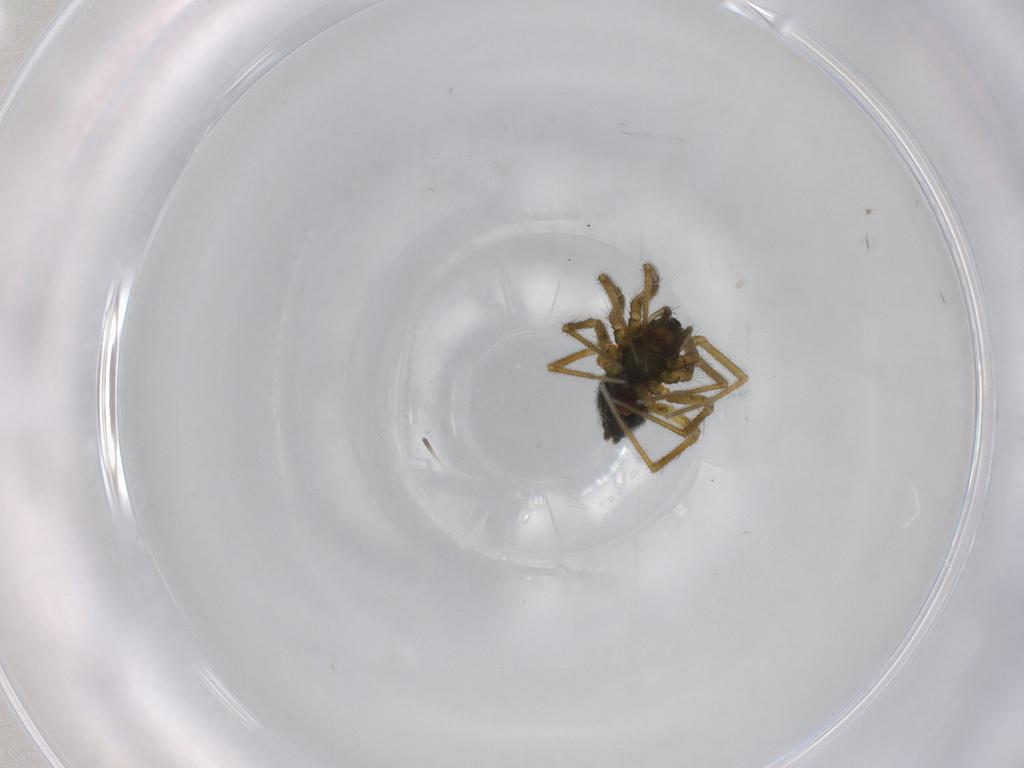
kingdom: Animalia
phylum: Arthropoda
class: Arachnida
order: Araneae
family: Linyphiidae
